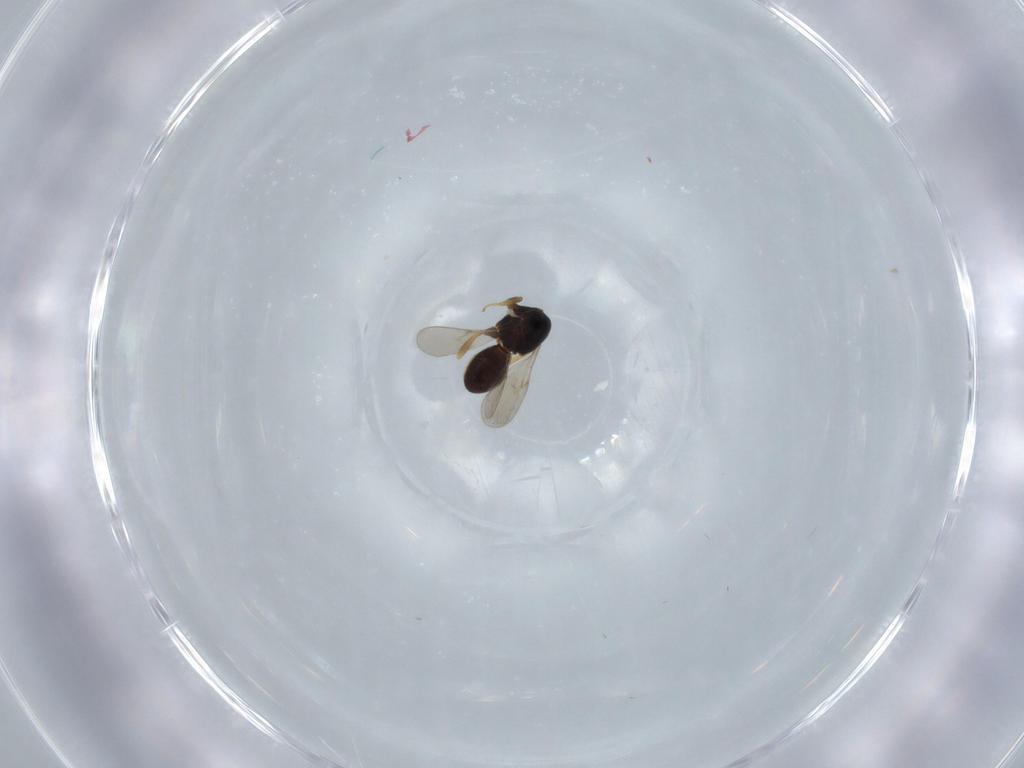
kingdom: Animalia
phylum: Arthropoda
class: Insecta
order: Hymenoptera
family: Scelionidae
